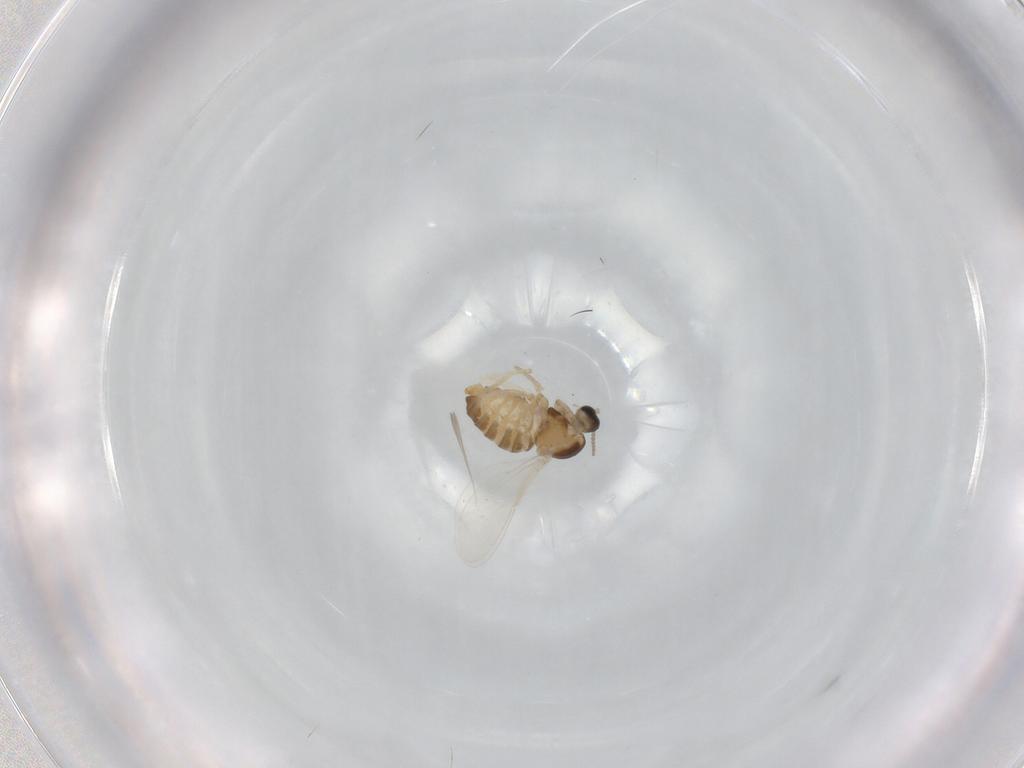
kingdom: Animalia
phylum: Arthropoda
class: Insecta
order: Diptera
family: Cecidomyiidae
